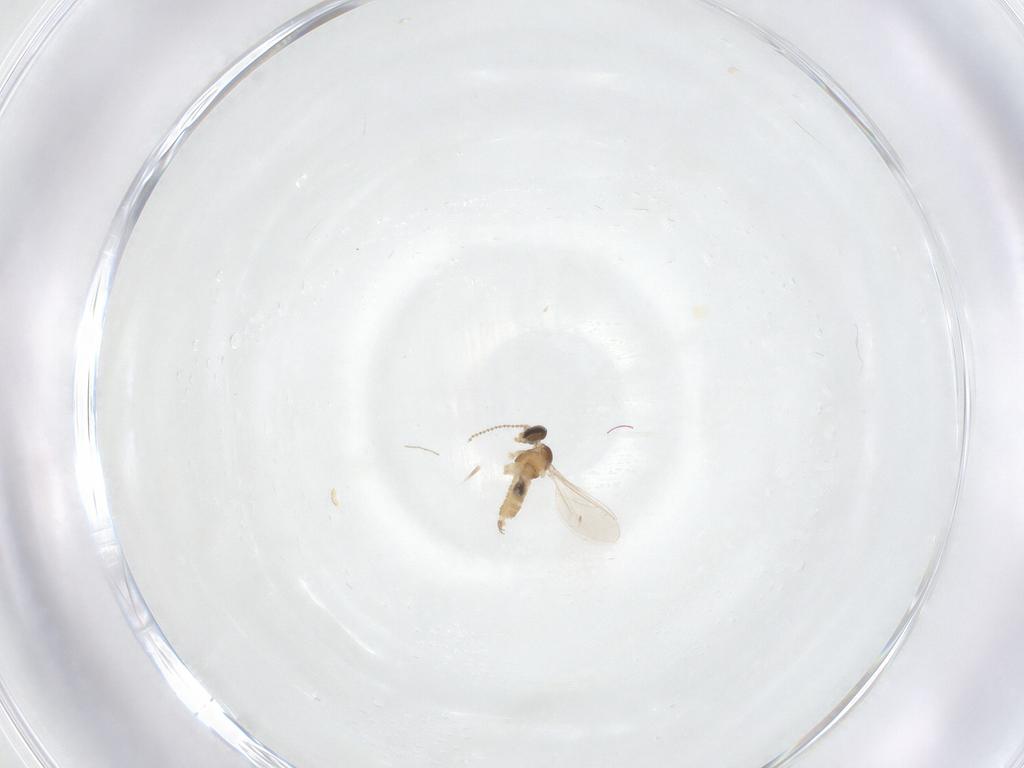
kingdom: Animalia
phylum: Arthropoda
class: Insecta
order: Diptera
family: Cecidomyiidae
